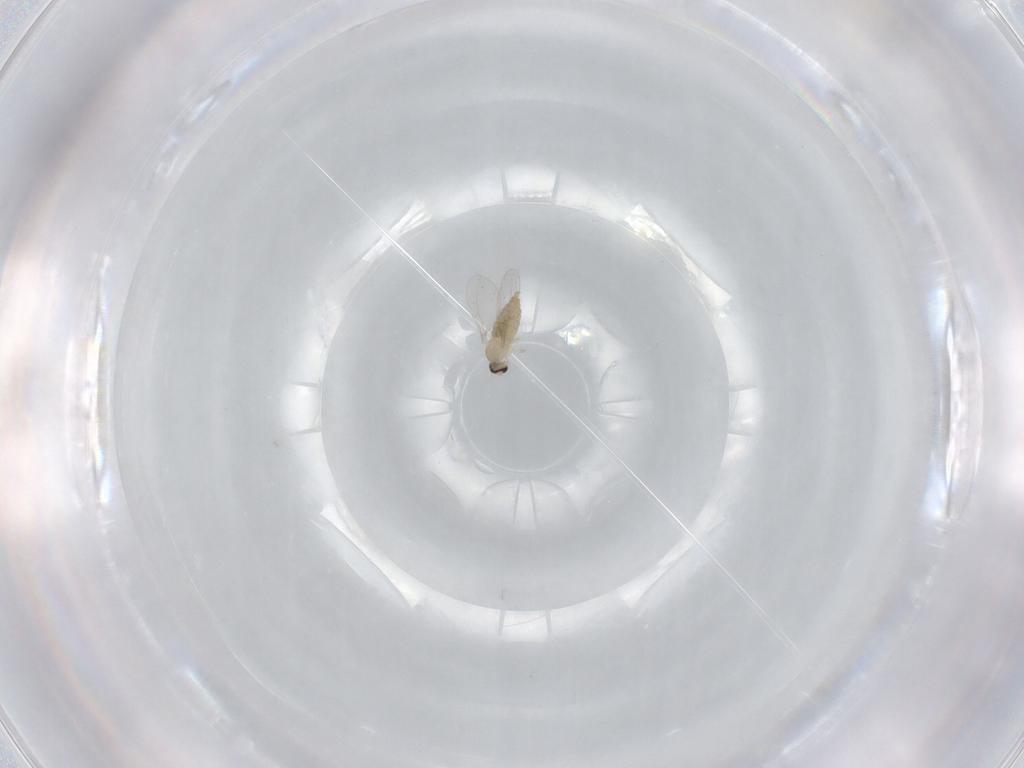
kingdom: Animalia
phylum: Arthropoda
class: Insecta
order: Diptera
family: Cecidomyiidae
